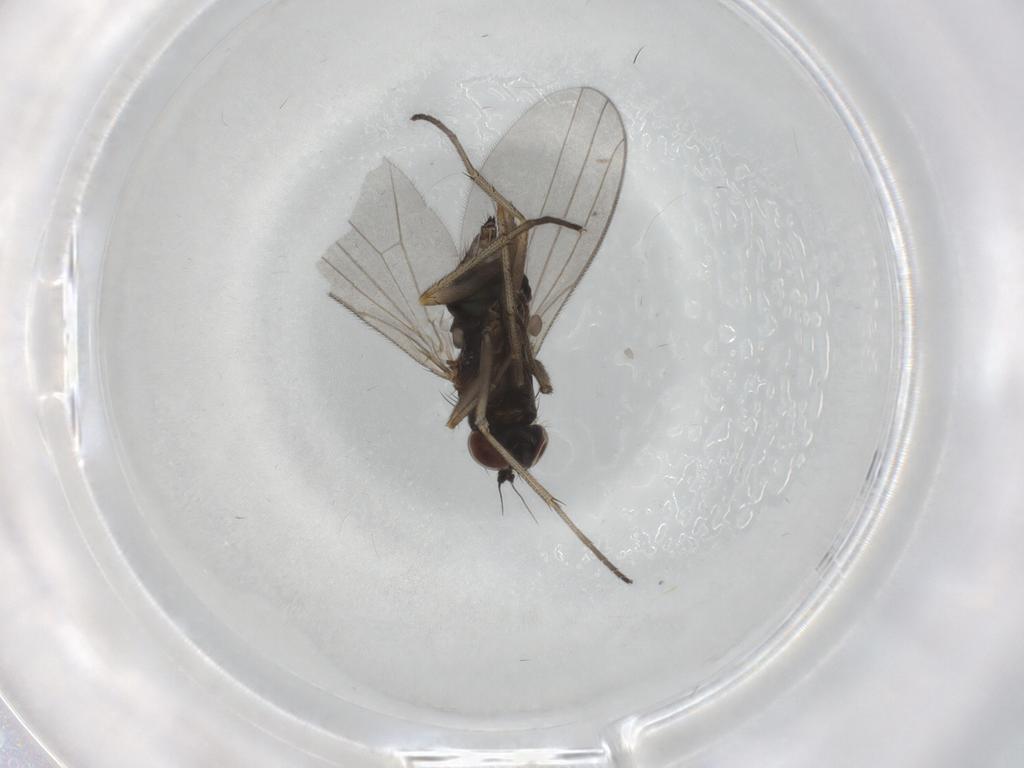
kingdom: Animalia
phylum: Arthropoda
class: Insecta
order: Diptera
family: Dolichopodidae
